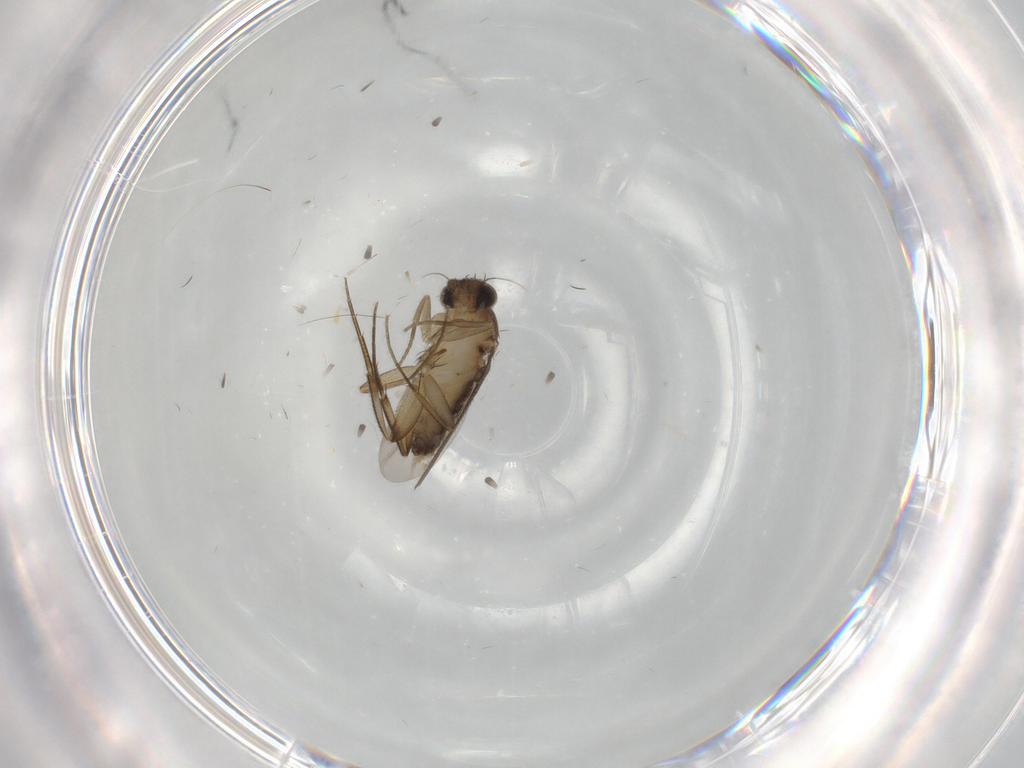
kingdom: Animalia
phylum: Arthropoda
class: Insecta
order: Diptera
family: Phoridae
